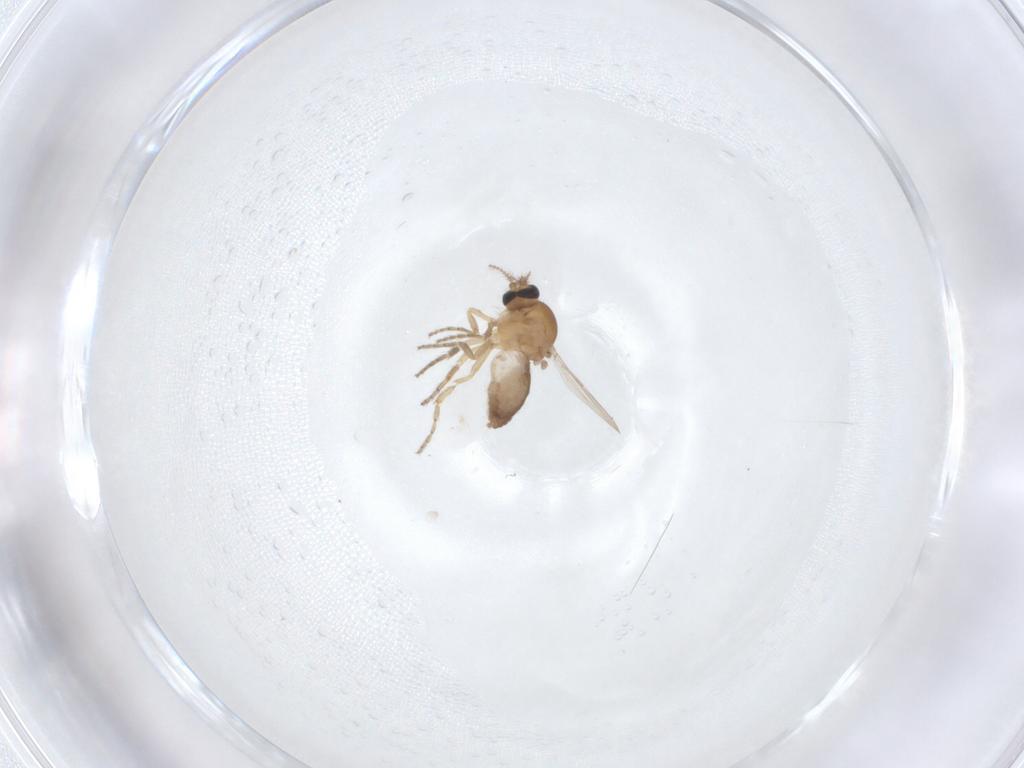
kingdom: Animalia
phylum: Arthropoda
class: Insecta
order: Diptera
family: Ceratopogonidae
